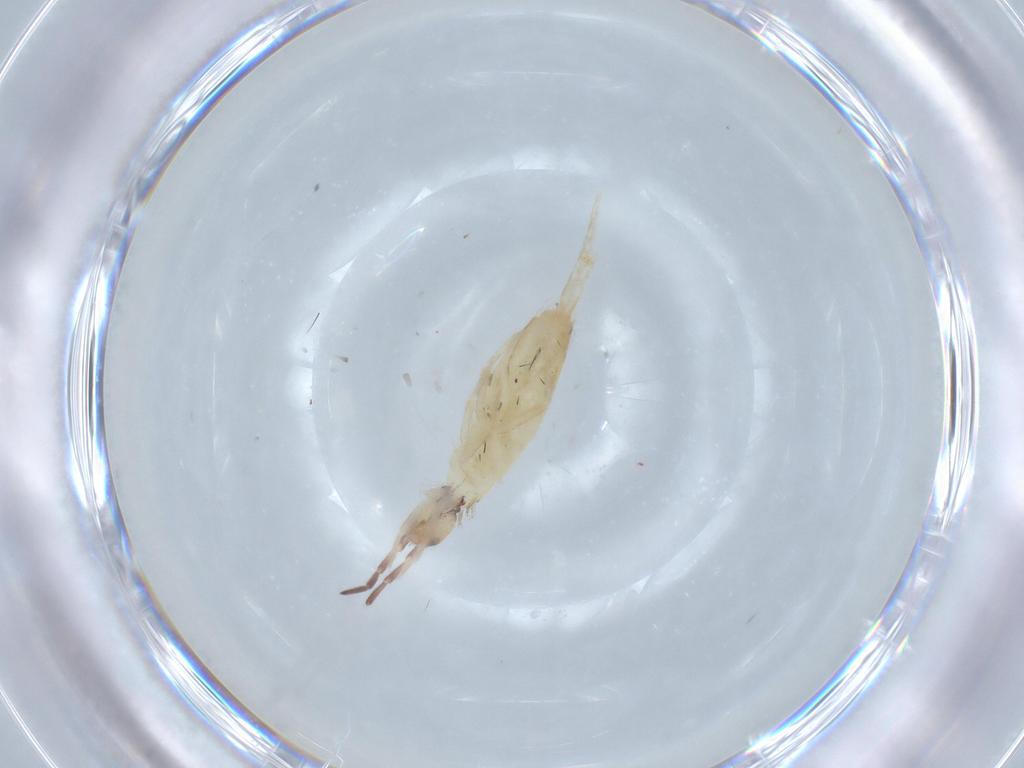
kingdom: Animalia
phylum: Arthropoda
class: Collembola
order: Entomobryomorpha
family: Entomobryidae
